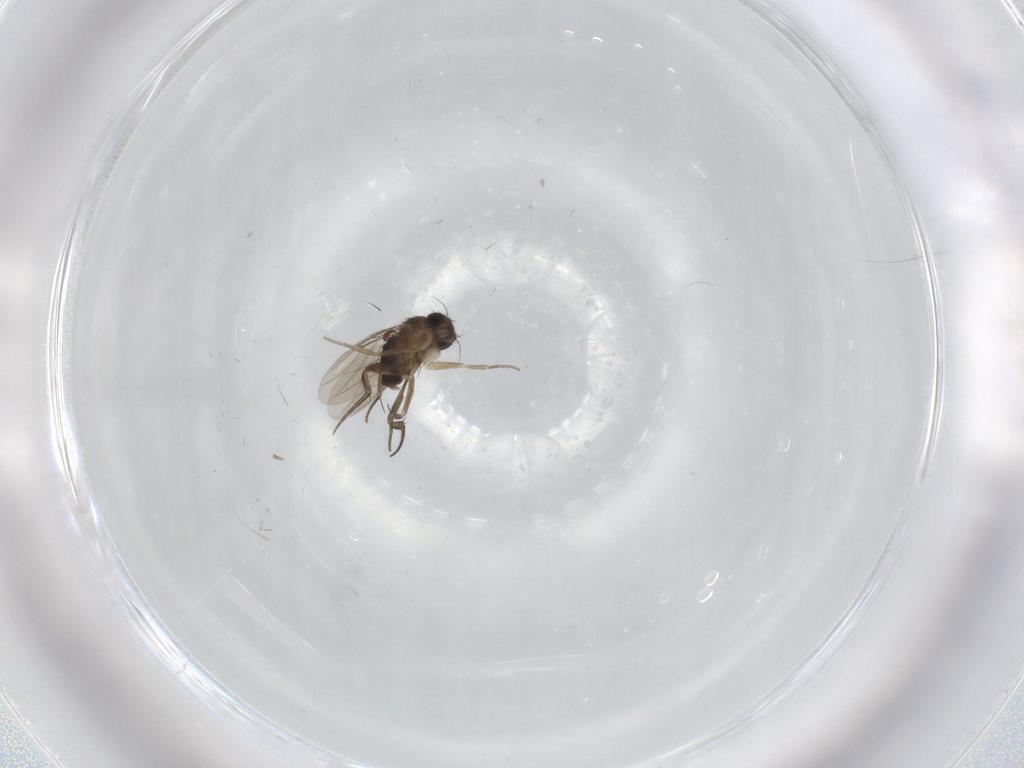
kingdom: Animalia
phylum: Arthropoda
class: Insecta
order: Diptera
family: Phoridae
